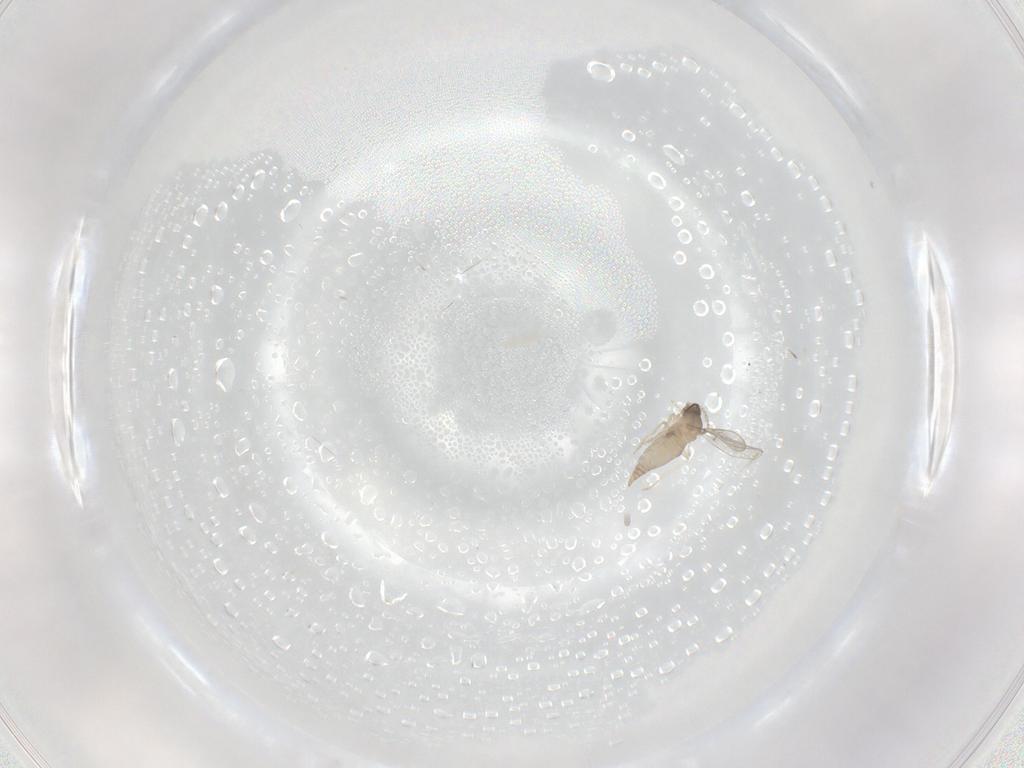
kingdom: Animalia
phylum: Arthropoda
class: Insecta
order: Diptera
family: Cecidomyiidae
